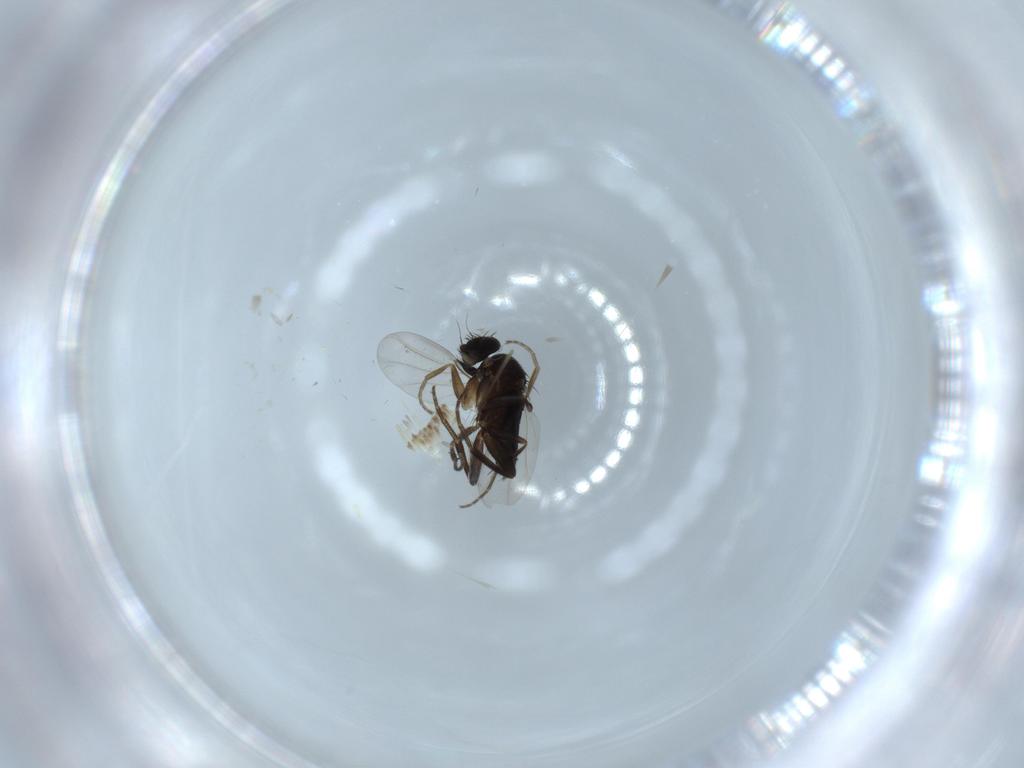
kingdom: Animalia
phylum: Arthropoda
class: Insecta
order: Diptera
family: Phoridae
